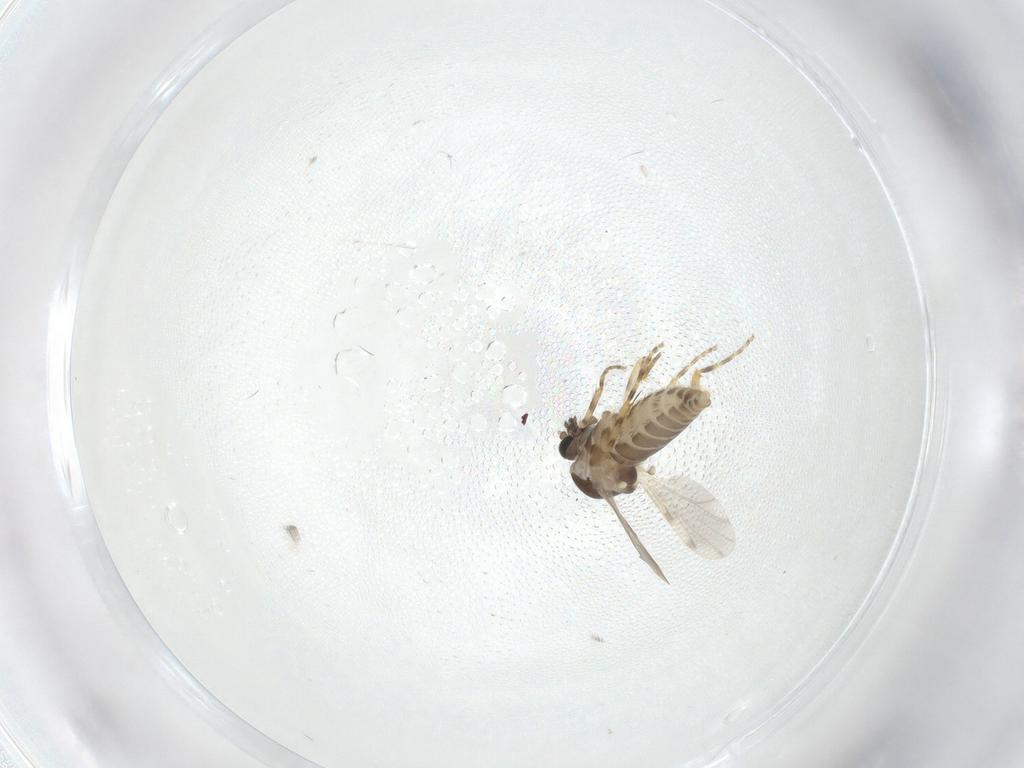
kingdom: Animalia
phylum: Arthropoda
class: Insecta
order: Diptera
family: Ceratopogonidae
